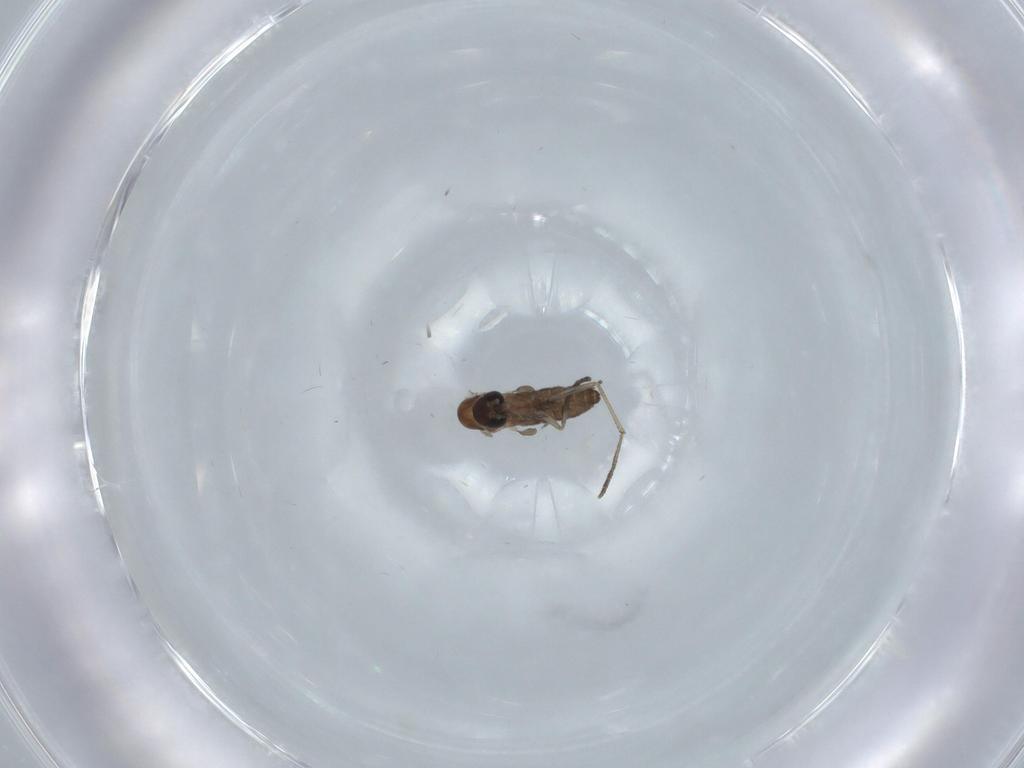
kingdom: Animalia
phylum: Arthropoda
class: Insecta
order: Diptera
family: Psychodidae
